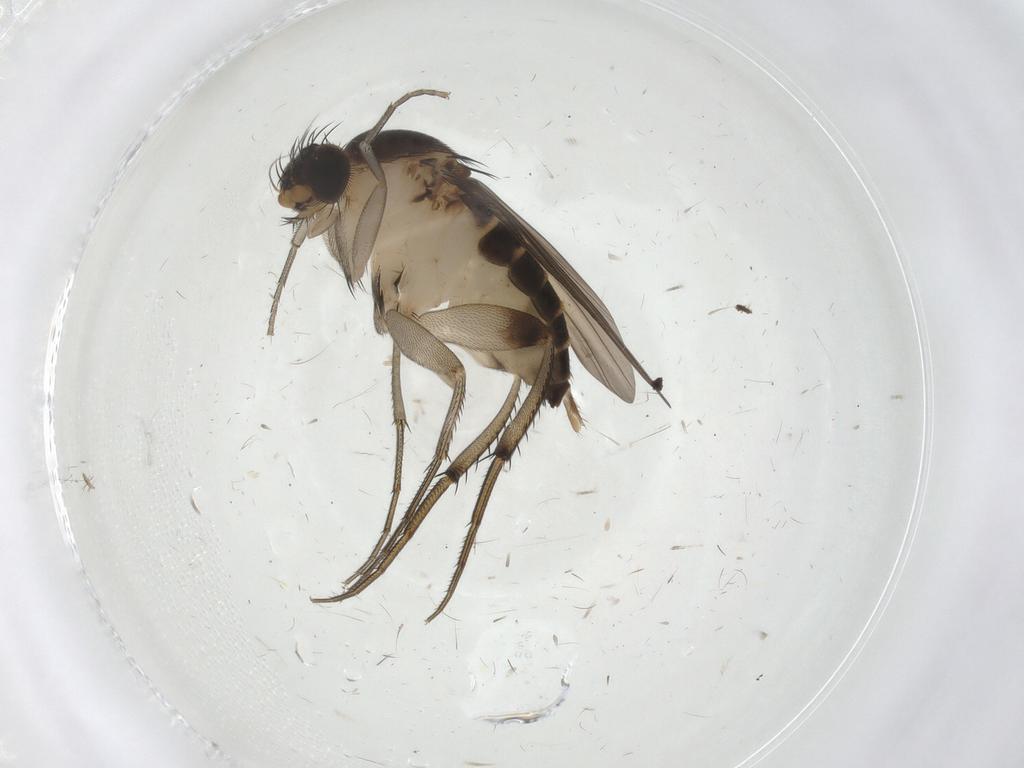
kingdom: Animalia
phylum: Arthropoda
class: Insecta
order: Diptera
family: Phoridae
